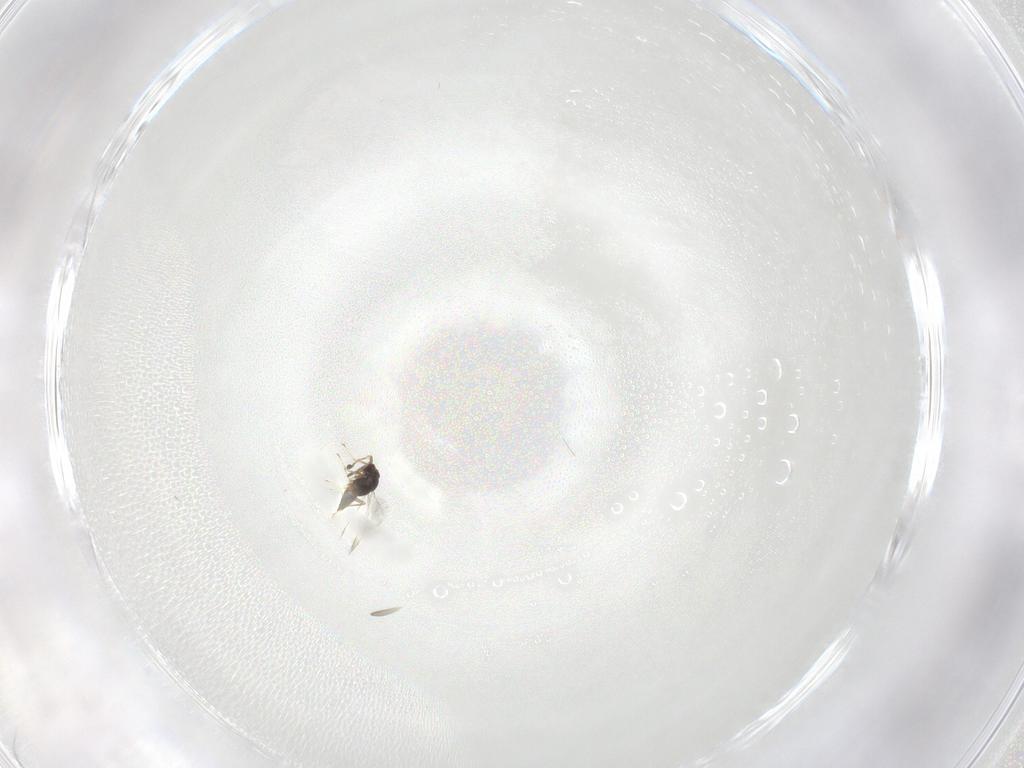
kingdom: Animalia
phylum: Arthropoda
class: Insecta
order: Hymenoptera
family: Mymaridae
